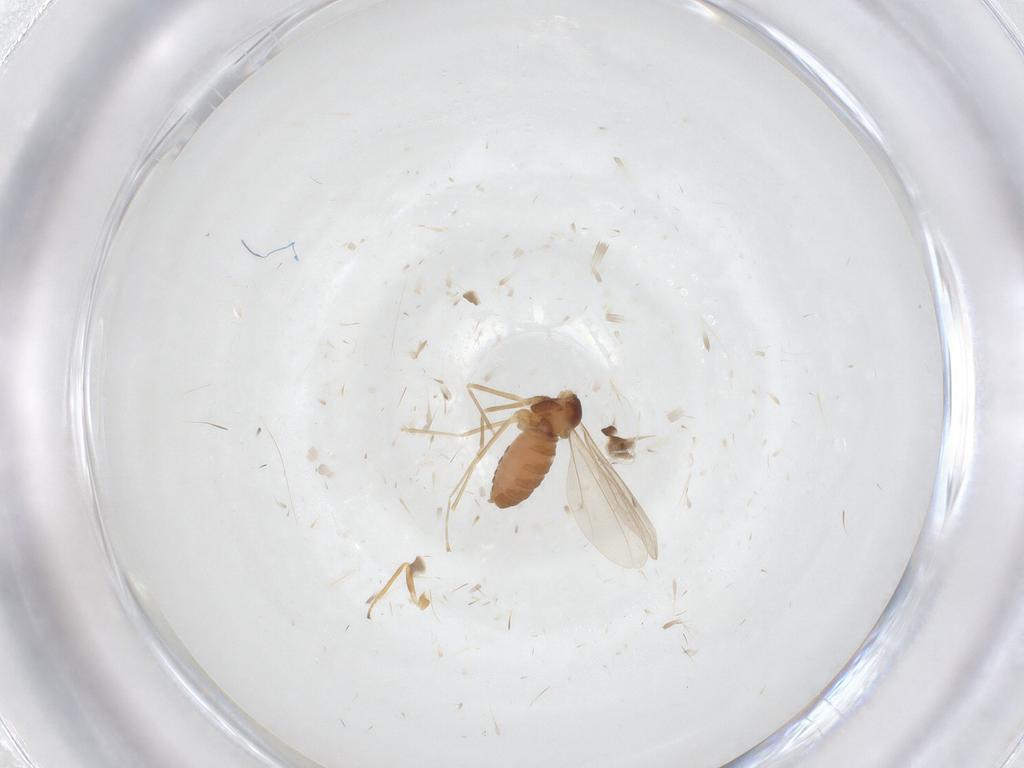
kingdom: Animalia
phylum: Arthropoda
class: Insecta
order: Diptera
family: Cecidomyiidae
